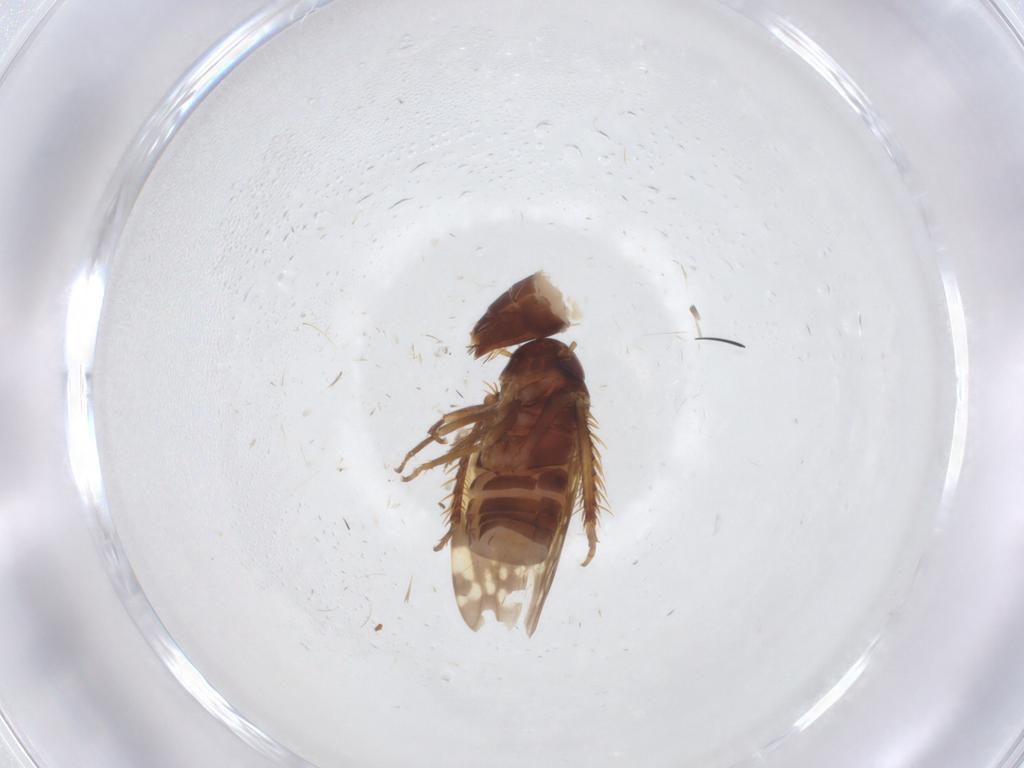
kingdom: Animalia
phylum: Arthropoda
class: Insecta
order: Hemiptera
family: Cicadellidae
